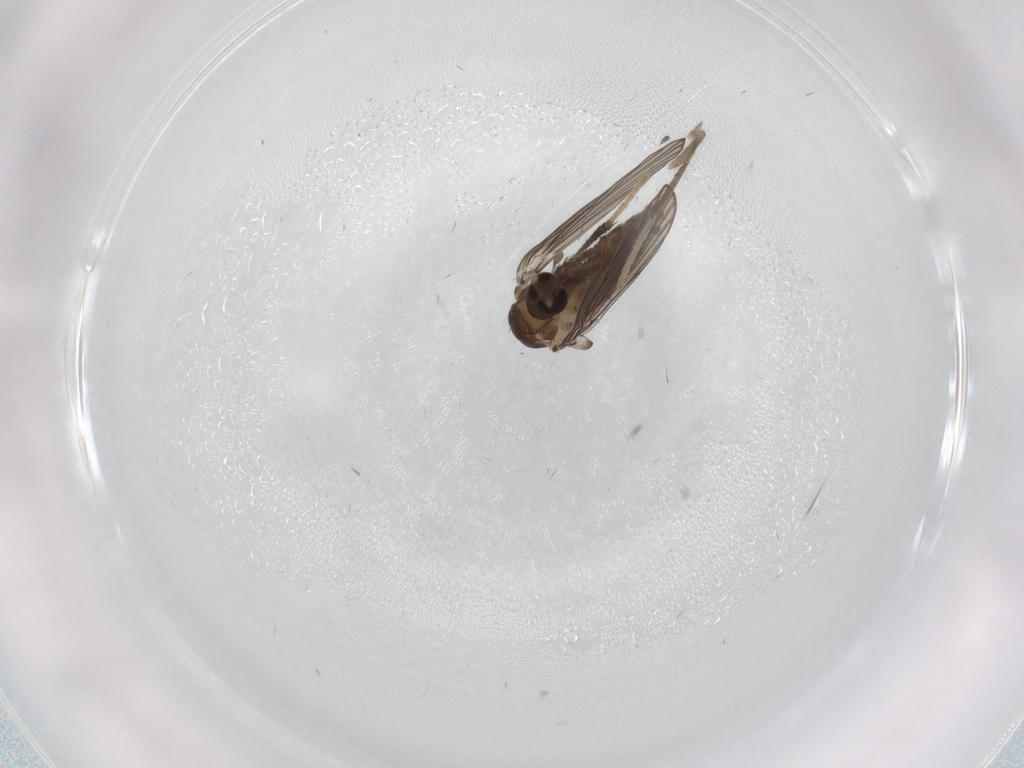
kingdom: Animalia
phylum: Arthropoda
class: Insecta
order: Diptera
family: Psychodidae
